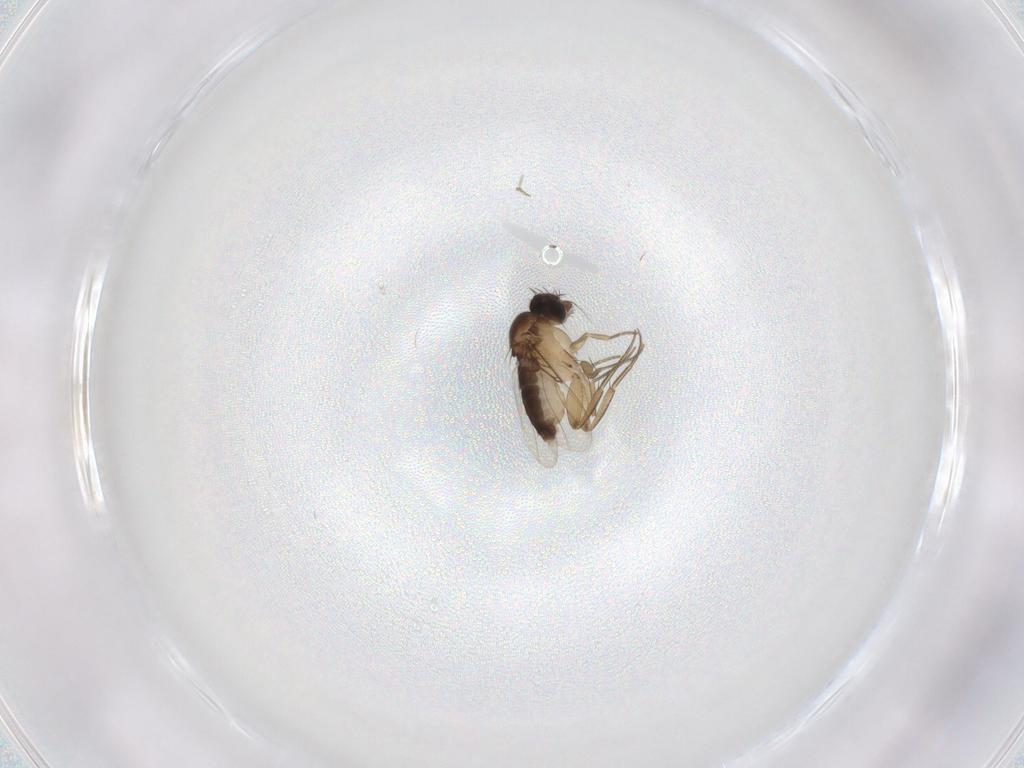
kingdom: Animalia
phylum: Arthropoda
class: Insecta
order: Diptera
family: Phoridae
